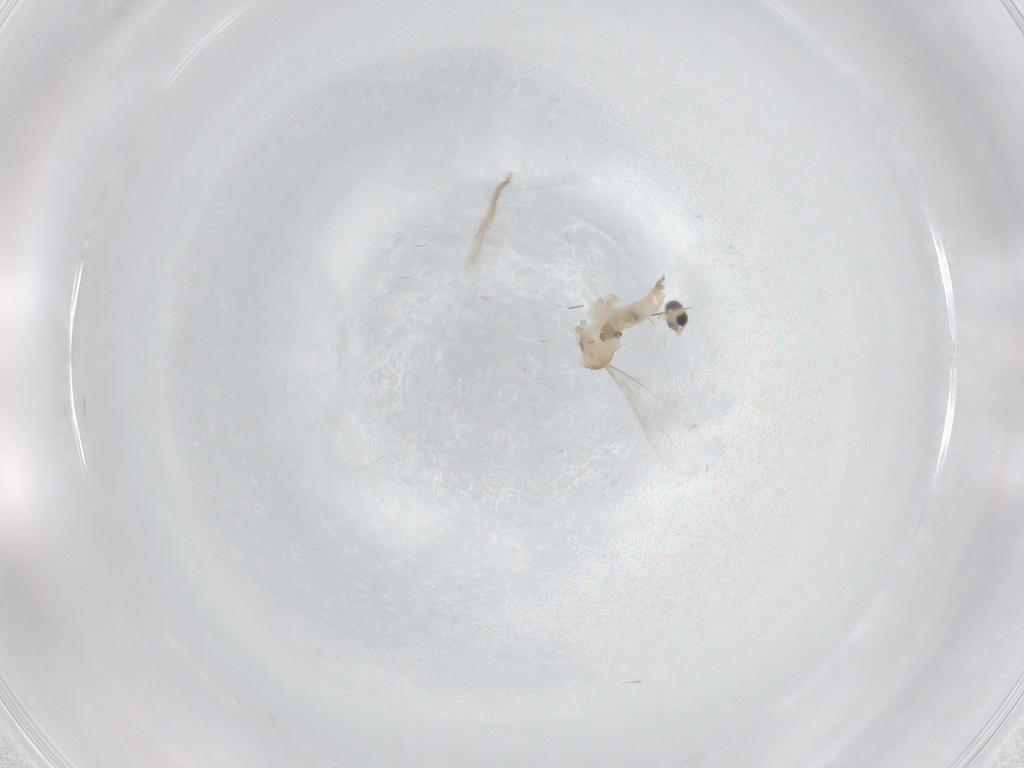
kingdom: Animalia
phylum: Arthropoda
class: Insecta
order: Diptera
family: Cecidomyiidae
